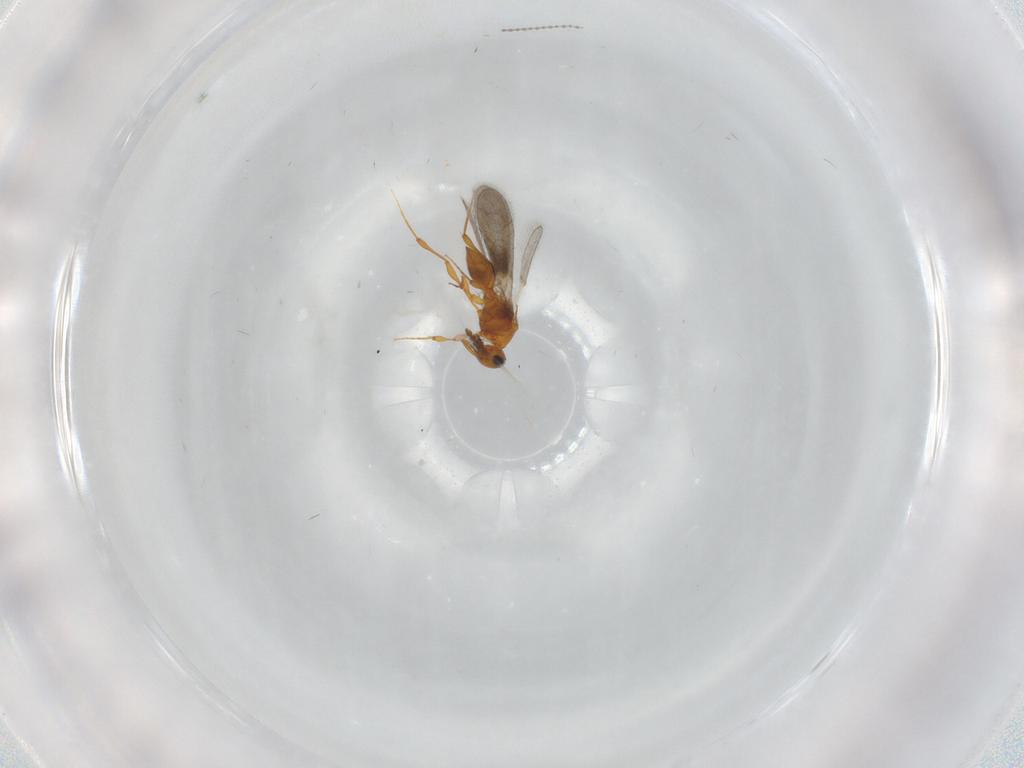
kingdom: Animalia
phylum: Arthropoda
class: Insecta
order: Hymenoptera
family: Platygastridae
